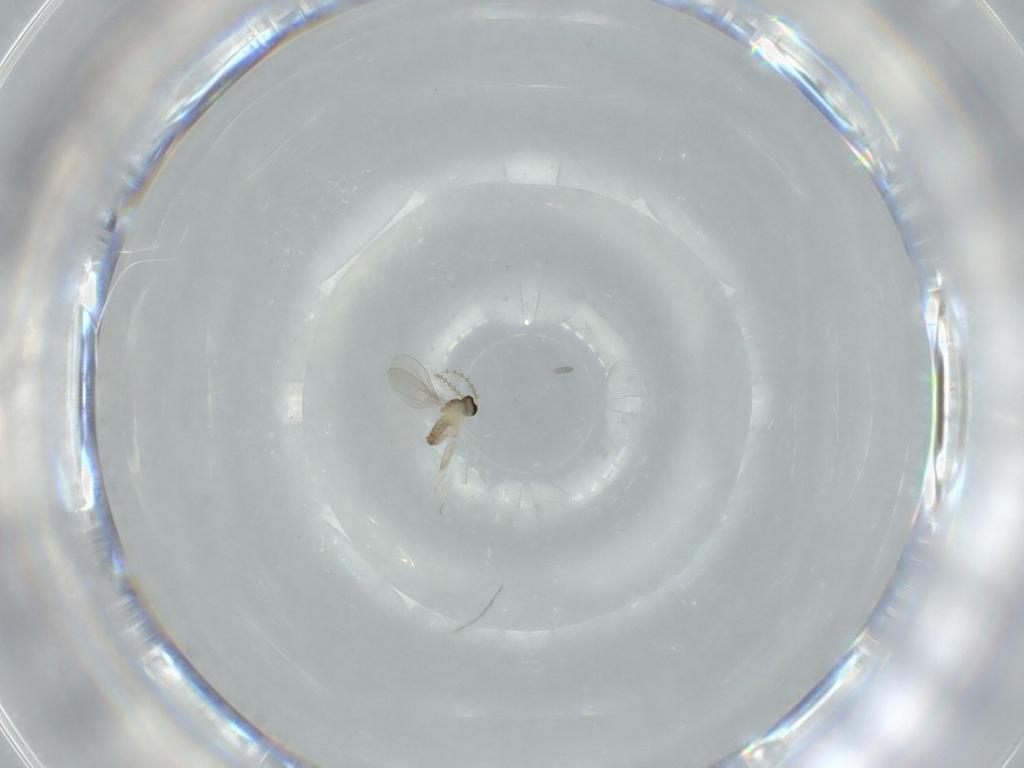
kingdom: Animalia
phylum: Arthropoda
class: Insecta
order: Diptera
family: Cecidomyiidae
